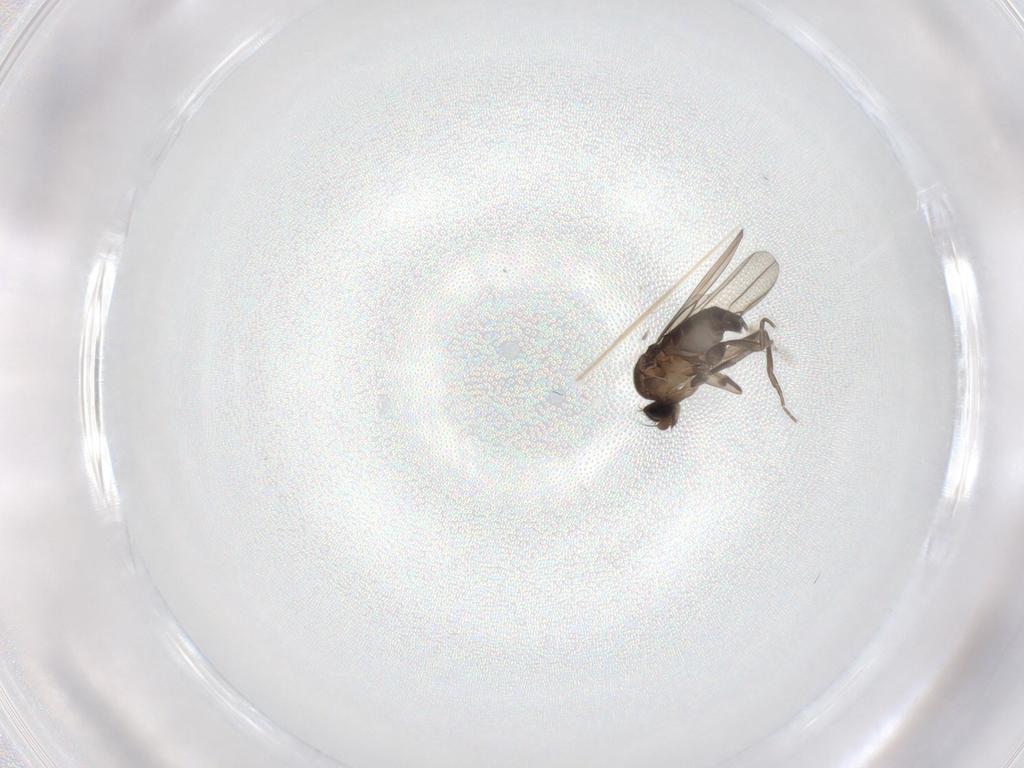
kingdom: Animalia
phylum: Arthropoda
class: Insecta
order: Diptera
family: Phoridae
